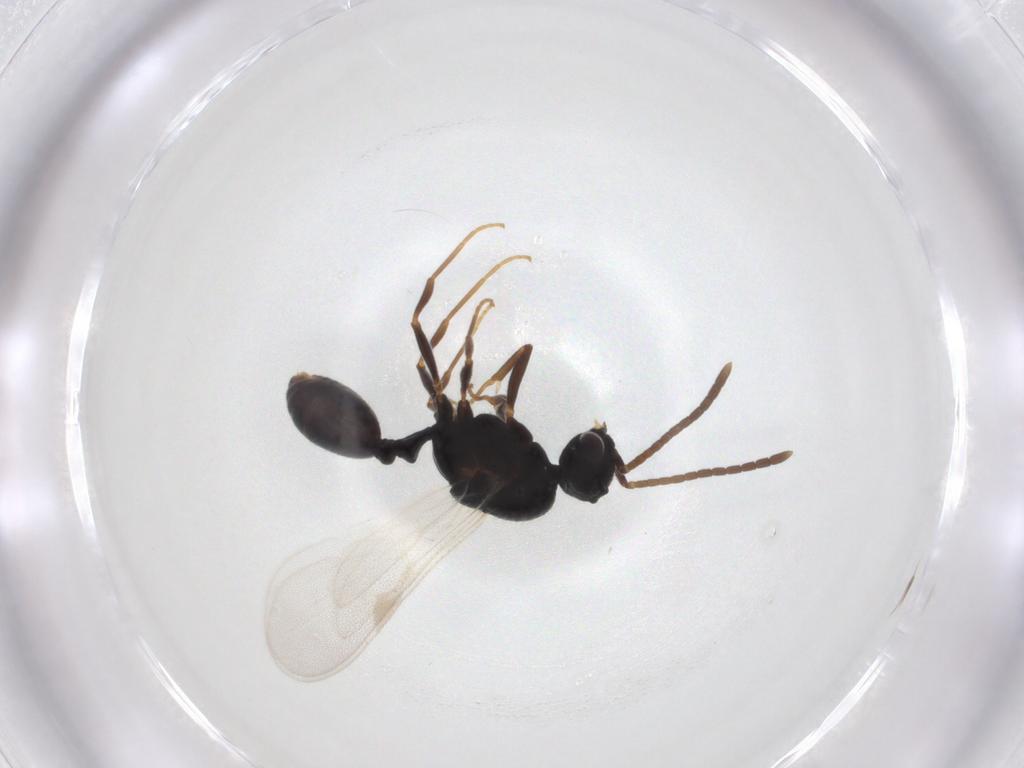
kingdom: Animalia
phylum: Arthropoda
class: Insecta
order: Hymenoptera
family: Formicidae
